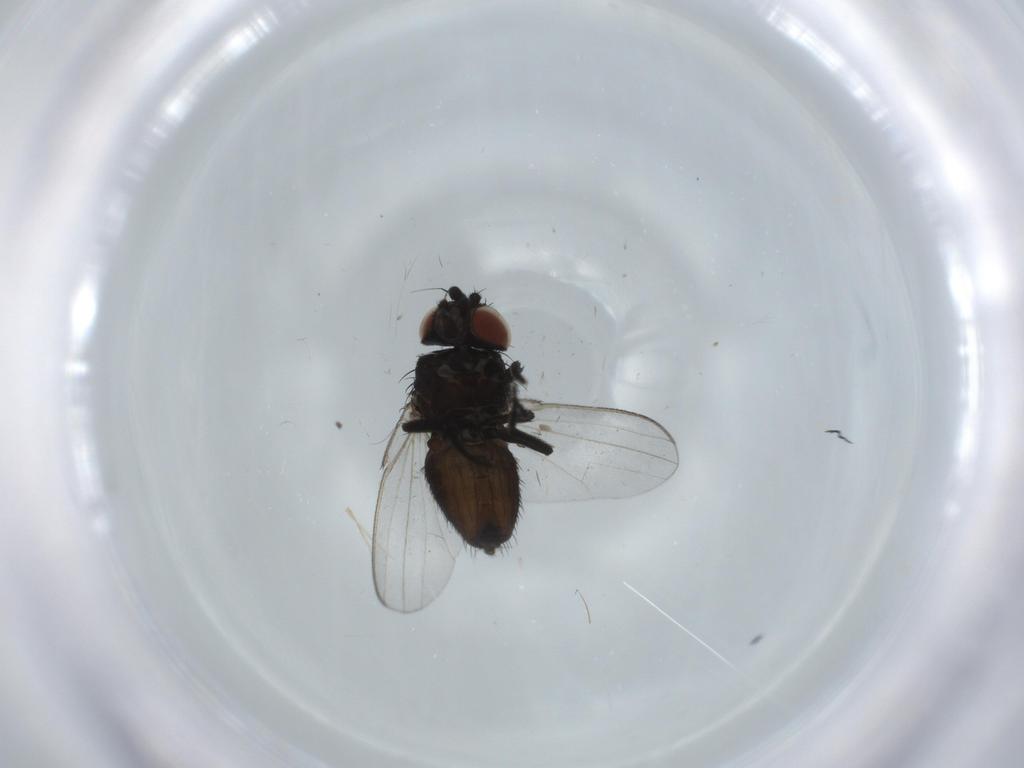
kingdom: Animalia
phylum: Arthropoda
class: Insecta
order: Diptera
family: Milichiidae
